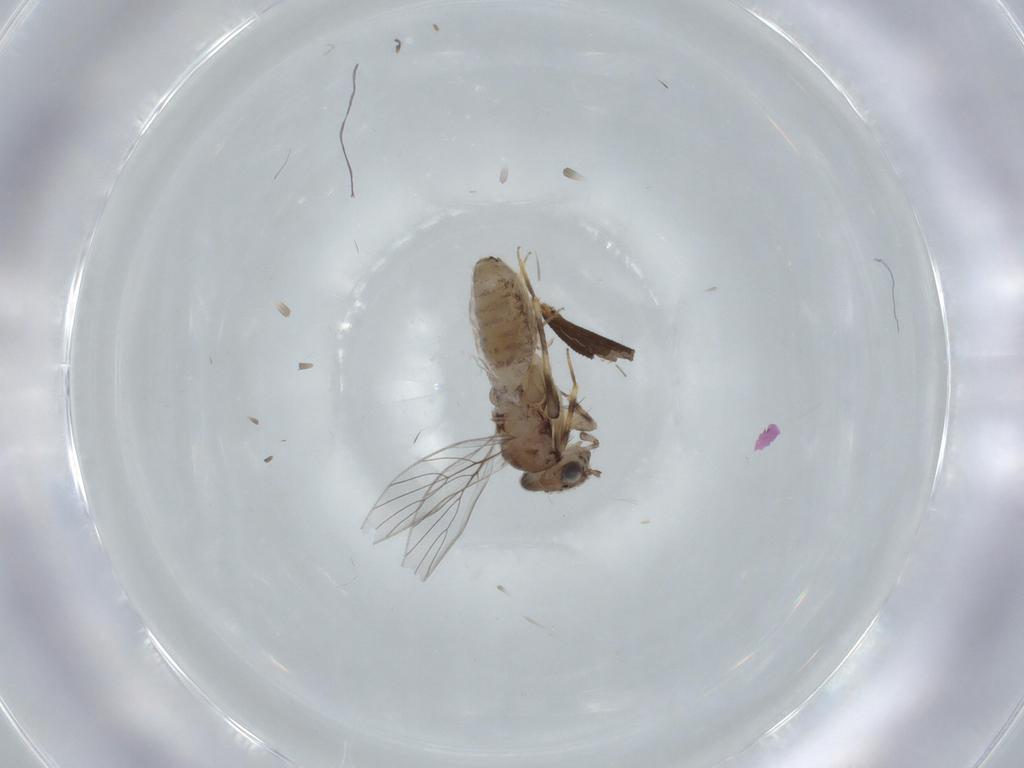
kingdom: Animalia
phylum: Arthropoda
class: Insecta
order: Psocodea
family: Lepidopsocidae
